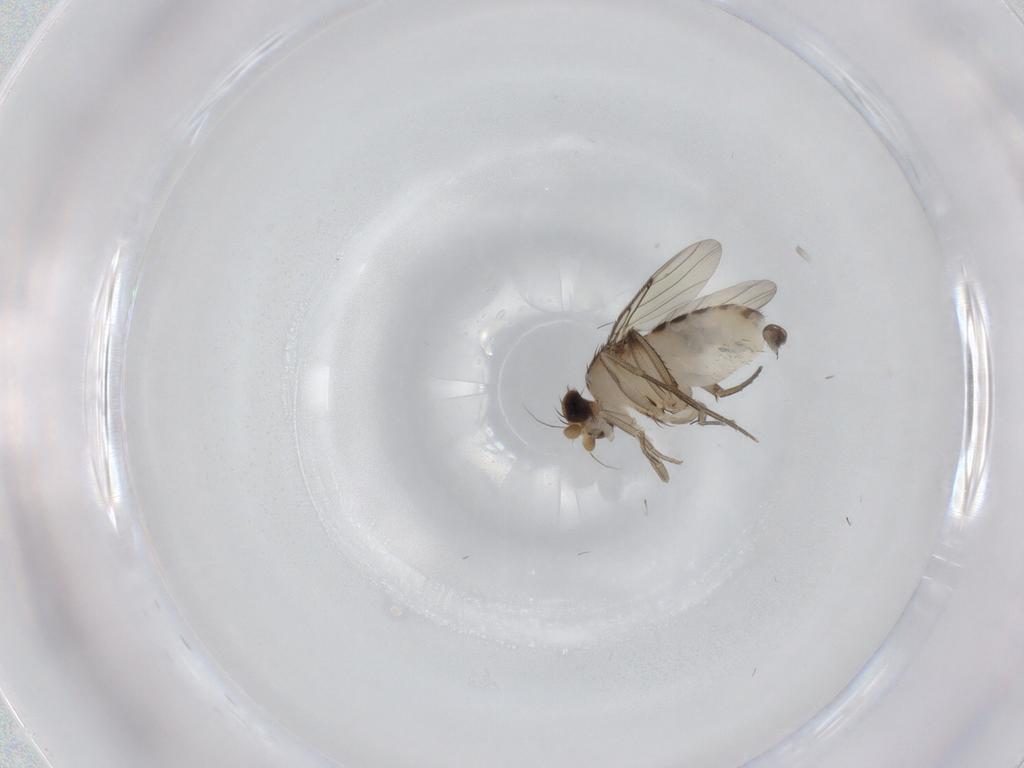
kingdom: Animalia
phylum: Arthropoda
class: Insecta
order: Diptera
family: Phoridae
